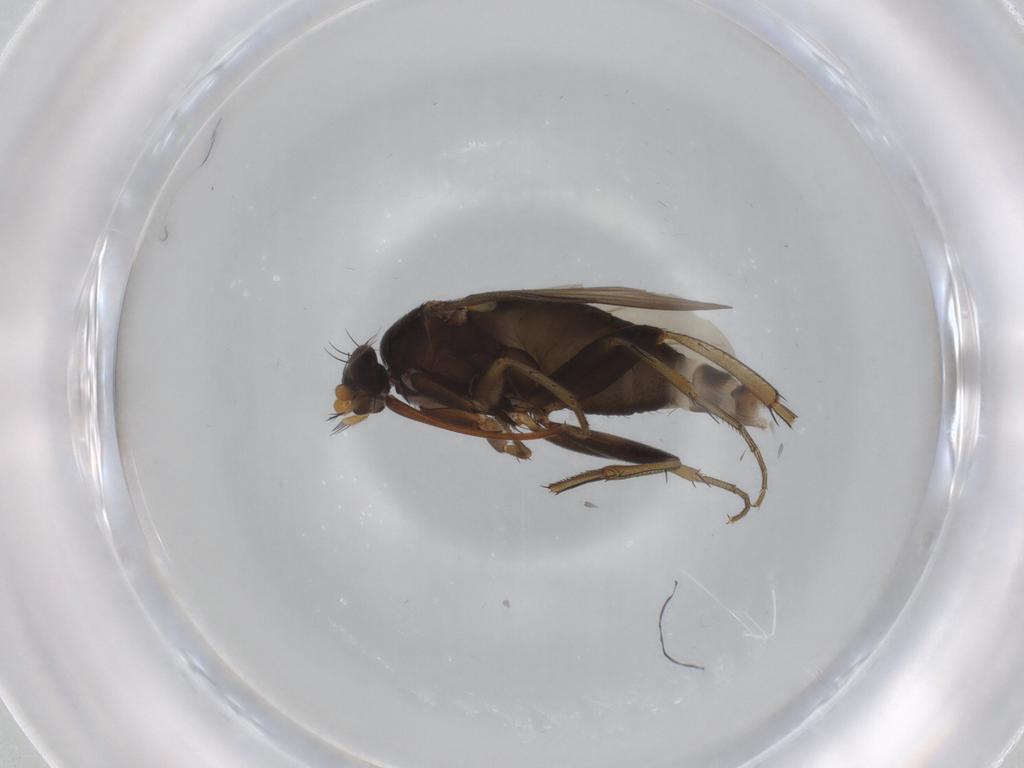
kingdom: Animalia
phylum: Arthropoda
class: Insecta
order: Diptera
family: Phoridae
